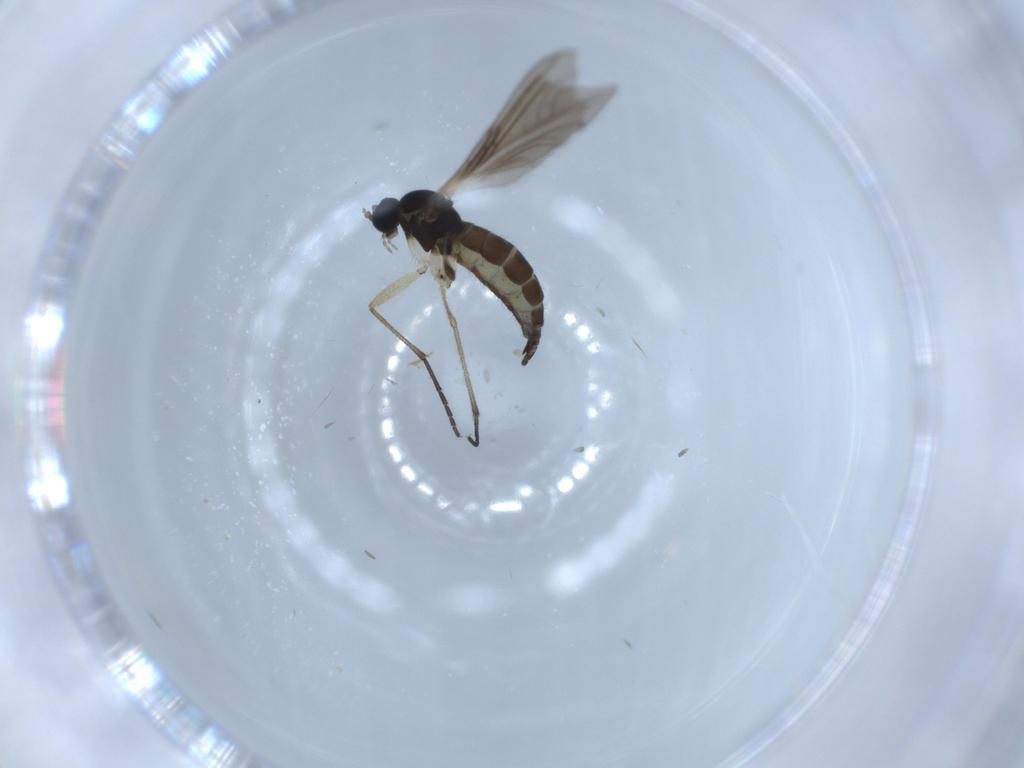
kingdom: Animalia
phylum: Arthropoda
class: Insecta
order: Diptera
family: Sciaridae
